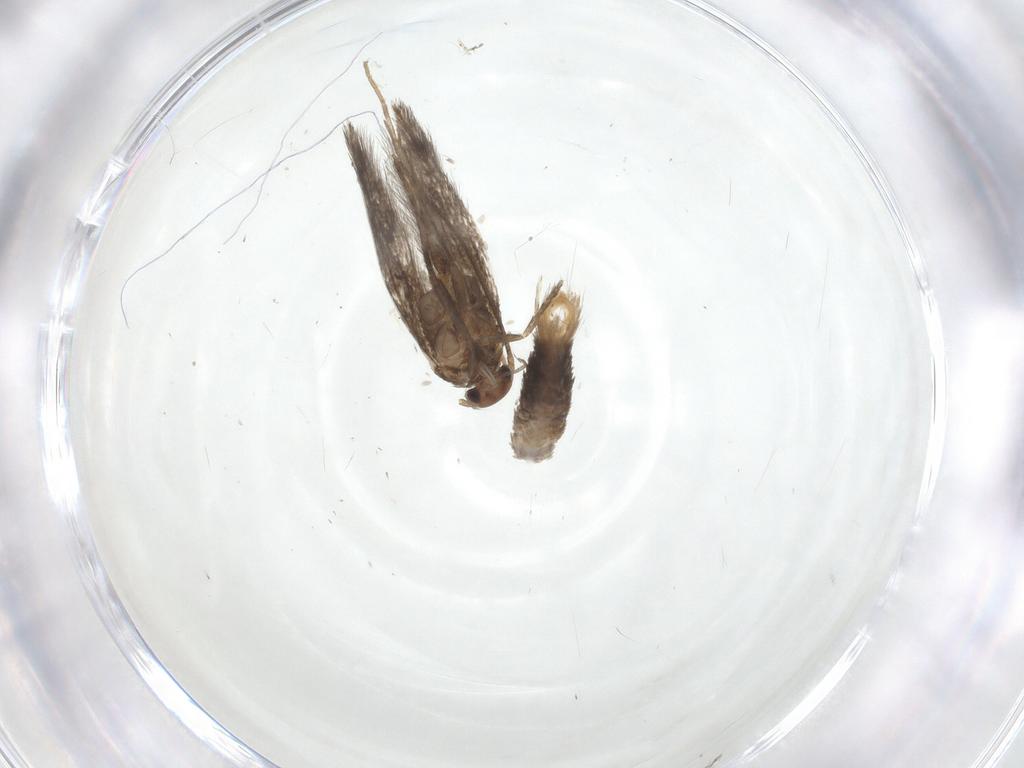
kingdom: Animalia
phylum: Arthropoda
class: Insecta
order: Lepidoptera
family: Elachistidae
